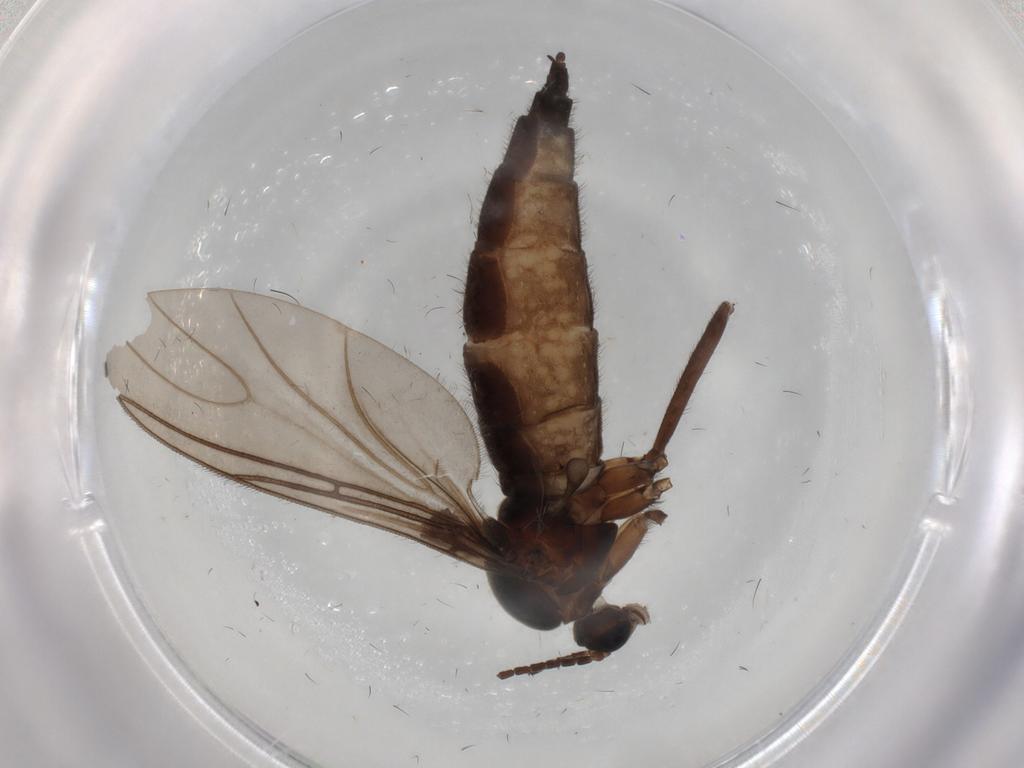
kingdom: Animalia
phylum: Arthropoda
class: Insecta
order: Diptera
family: Sciaridae
